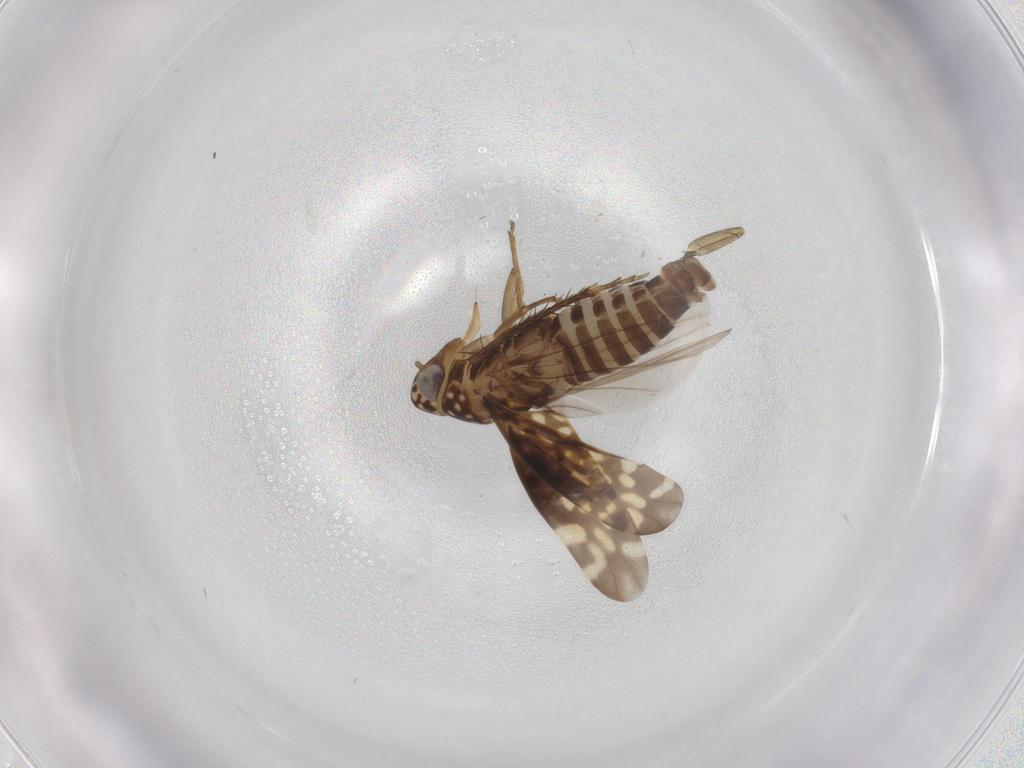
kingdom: Animalia
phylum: Arthropoda
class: Insecta
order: Hemiptera
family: Cicadellidae
